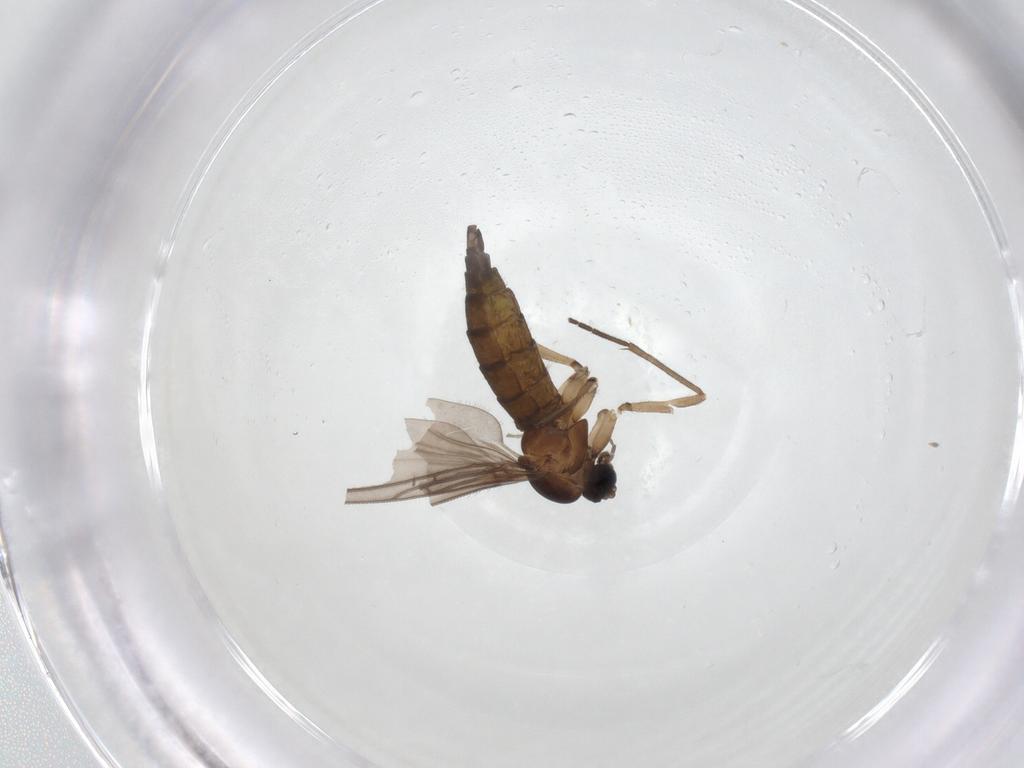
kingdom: Animalia
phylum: Arthropoda
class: Insecta
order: Diptera
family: Sciaridae
